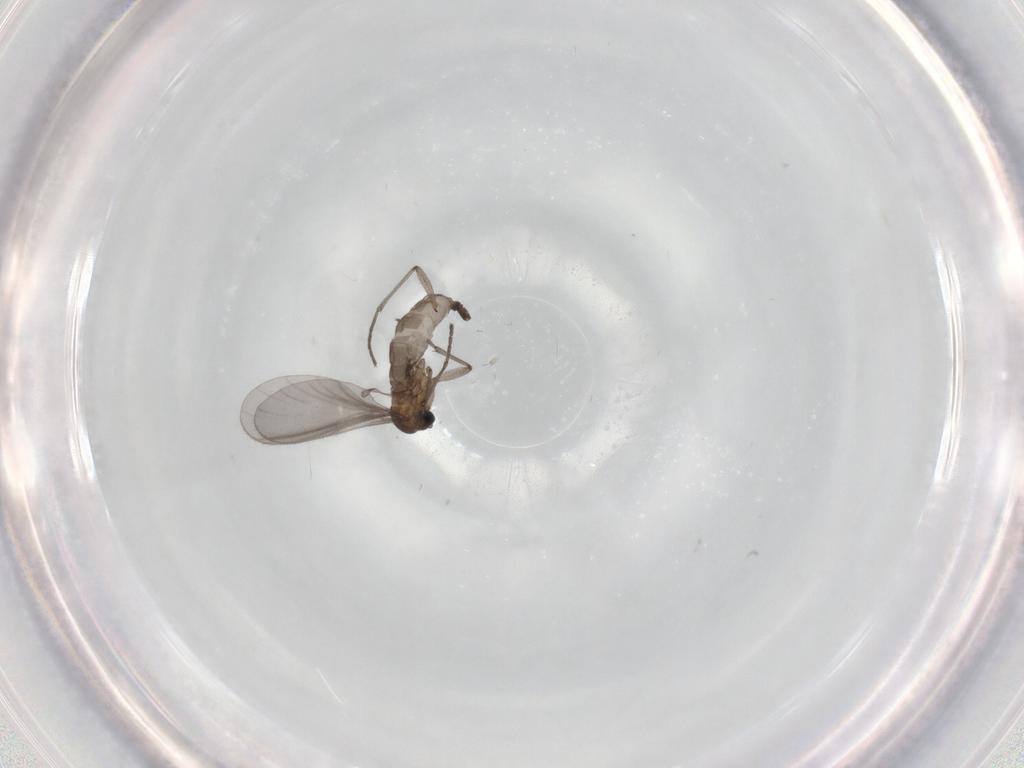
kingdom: Animalia
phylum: Arthropoda
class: Insecta
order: Diptera
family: Sciaridae
